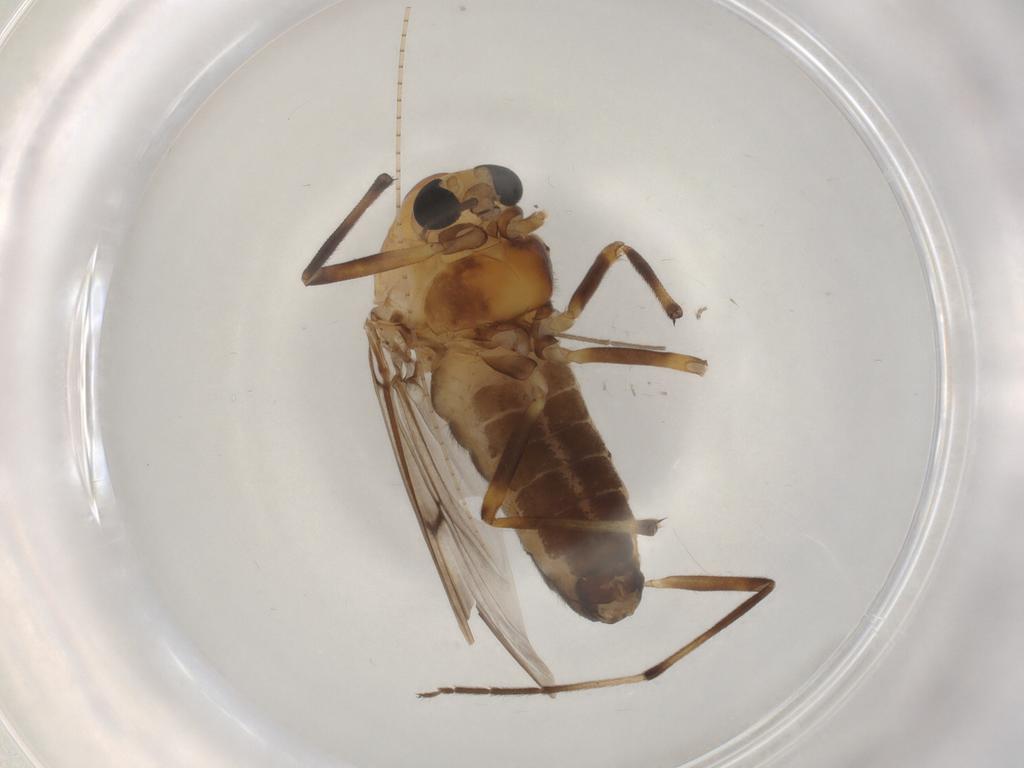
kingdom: Animalia
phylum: Arthropoda
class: Insecta
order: Diptera
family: Chironomidae
